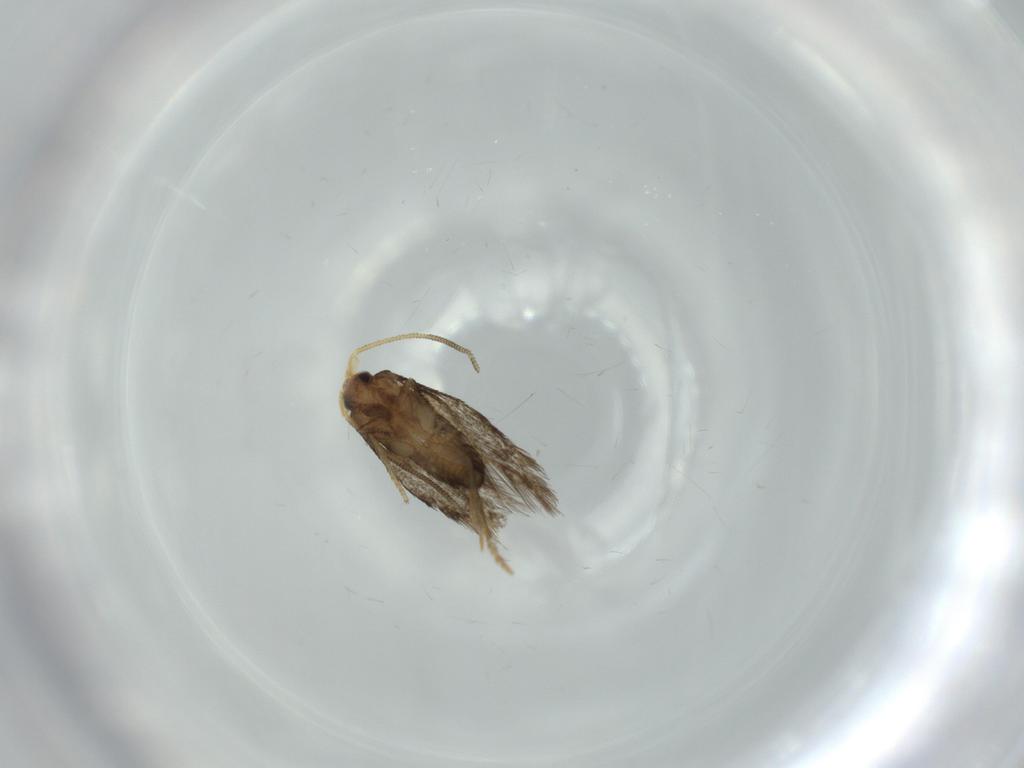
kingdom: Animalia
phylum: Arthropoda
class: Insecta
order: Lepidoptera
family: Nepticulidae
